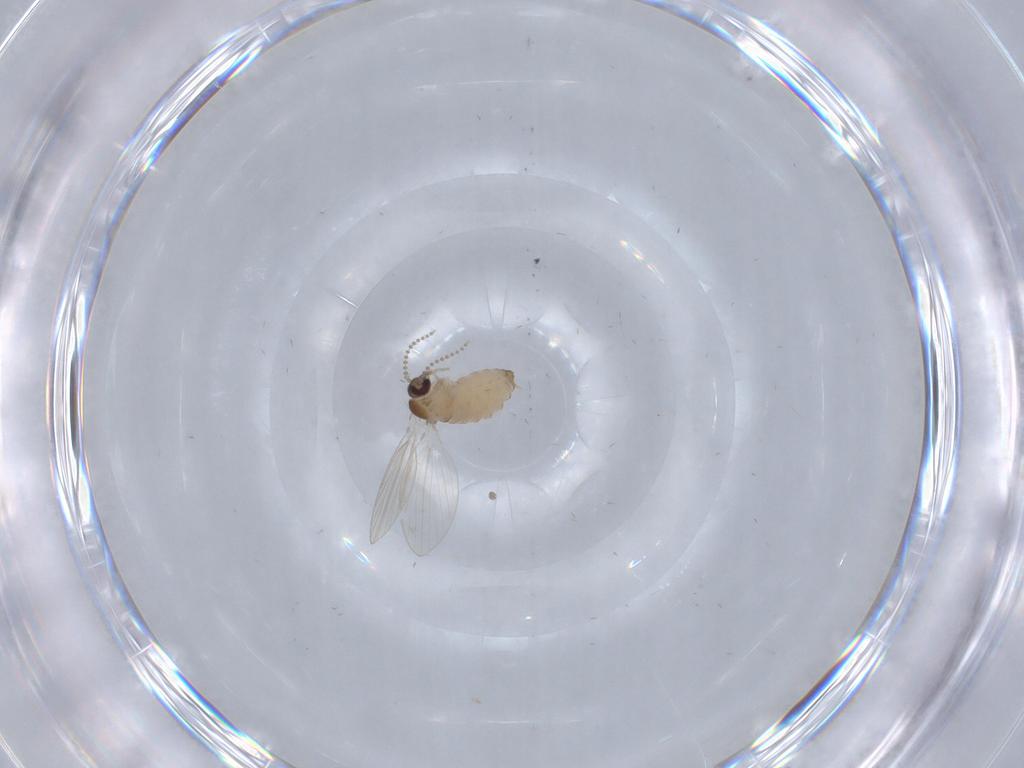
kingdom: Animalia
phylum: Arthropoda
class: Insecta
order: Diptera
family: Psychodidae
